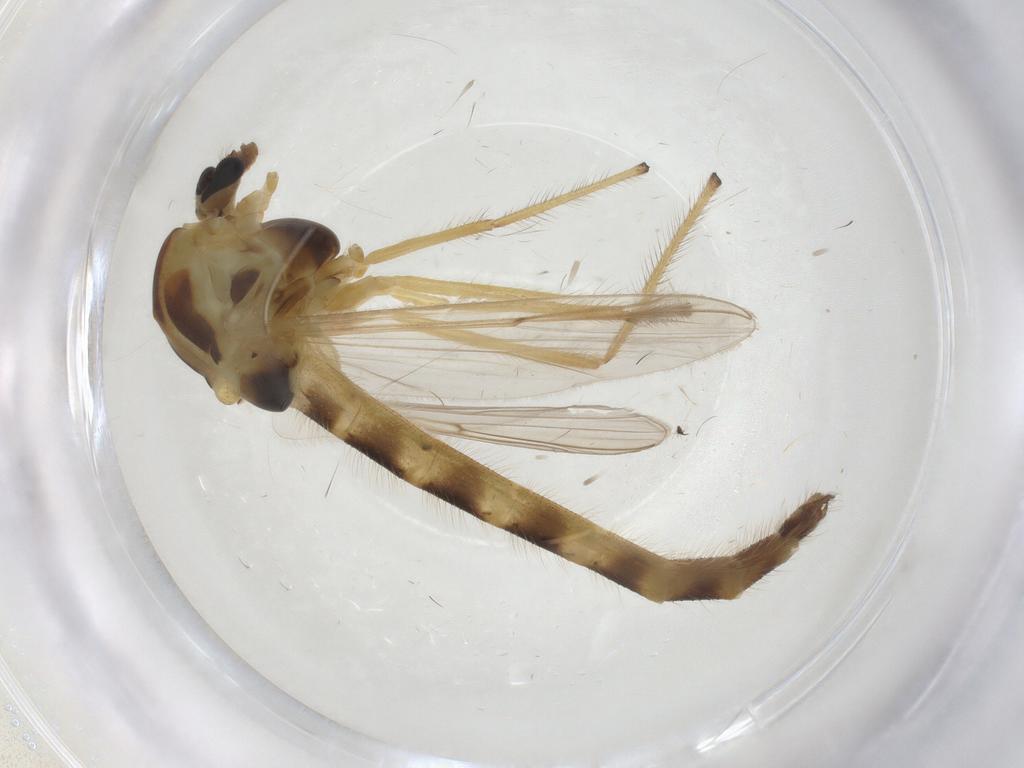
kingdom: Animalia
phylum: Arthropoda
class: Insecta
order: Diptera
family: Chironomidae
